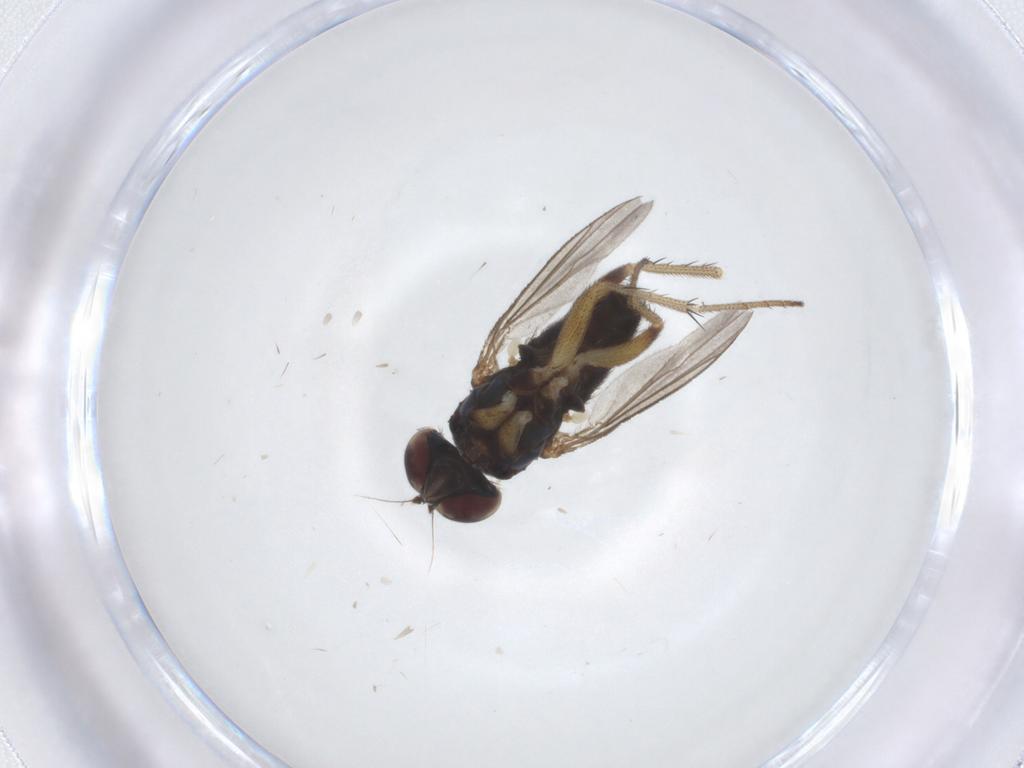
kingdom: Animalia
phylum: Arthropoda
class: Insecta
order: Diptera
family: Dolichopodidae
